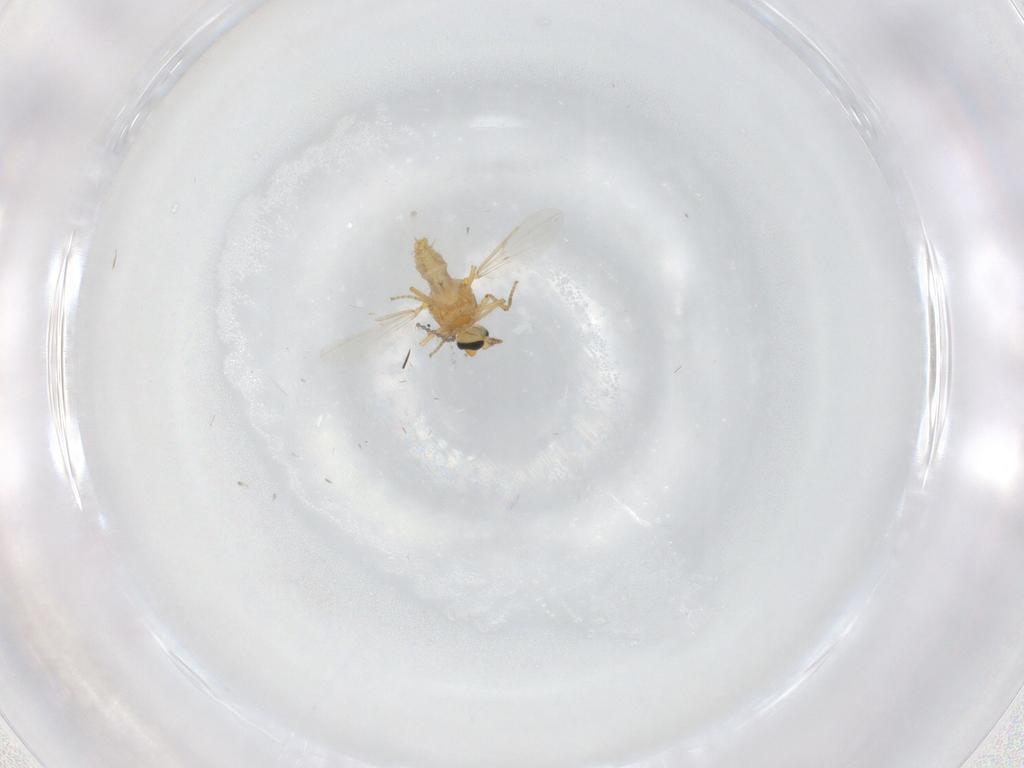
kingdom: Animalia
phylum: Arthropoda
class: Insecta
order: Diptera
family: Ceratopogonidae
